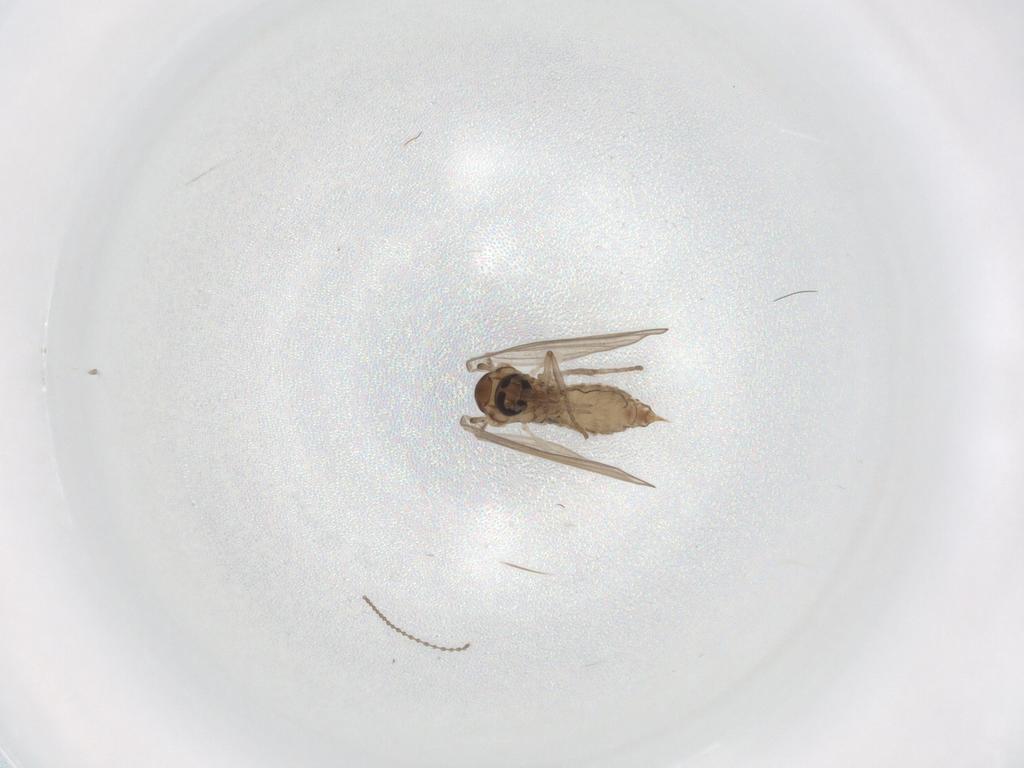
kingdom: Animalia
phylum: Arthropoda
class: Insecta
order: Diptera
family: Psychodidae
